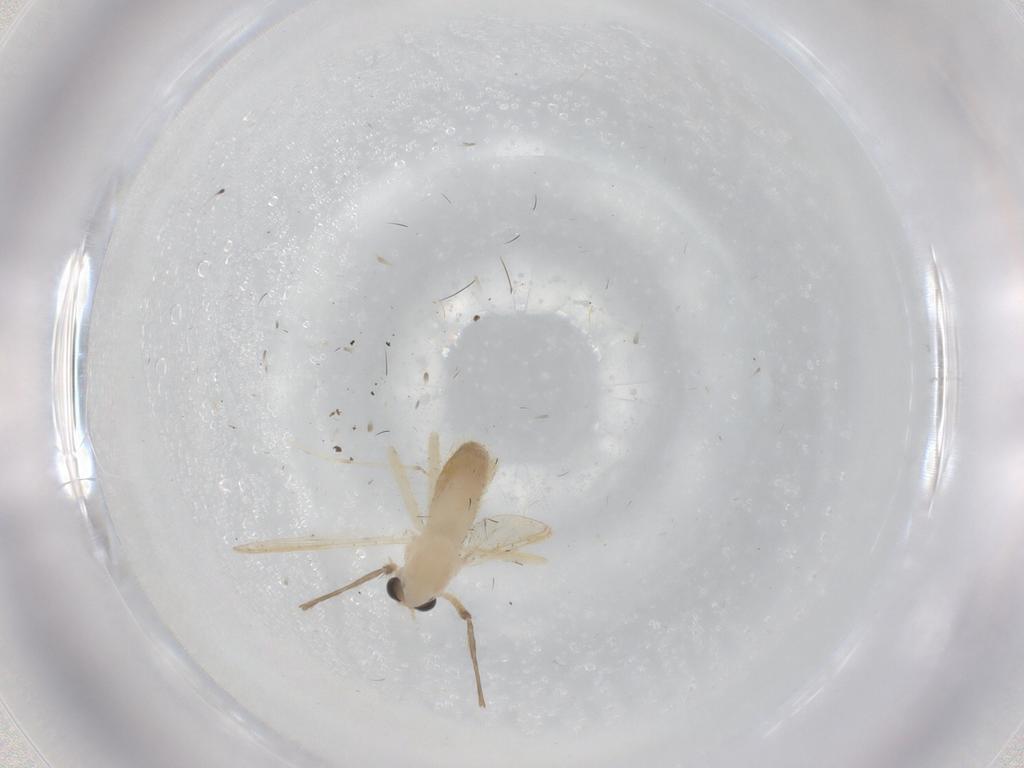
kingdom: Animalia
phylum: Arthropoda
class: Insecta
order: Diptera
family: Chironomidae
